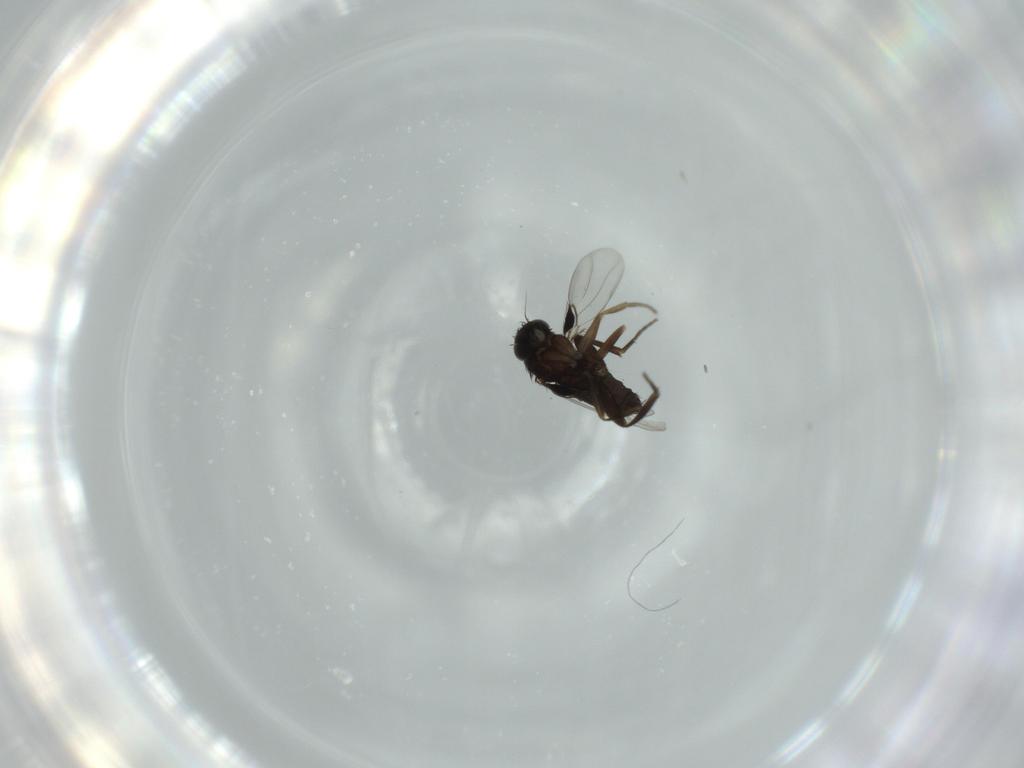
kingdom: Animalia
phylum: Arthropoda
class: Insecta
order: Diptera
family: Phoridae
